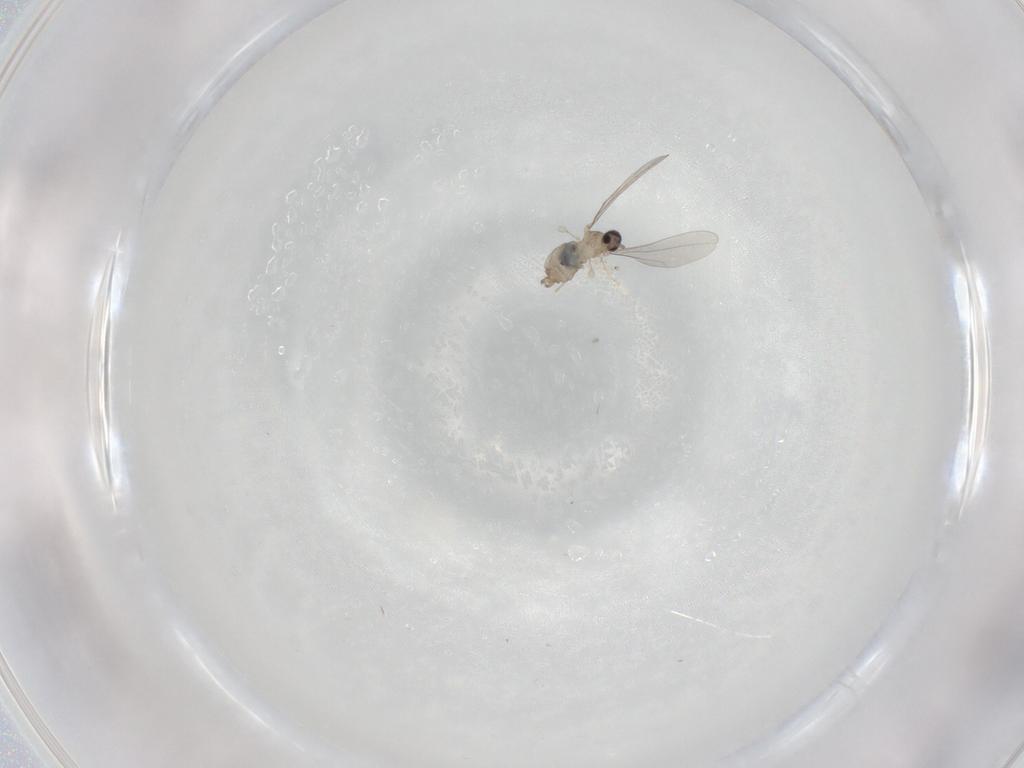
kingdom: Animalia
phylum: Arthropoda
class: Insecta
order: Diptera
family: Cecidomyiidae
